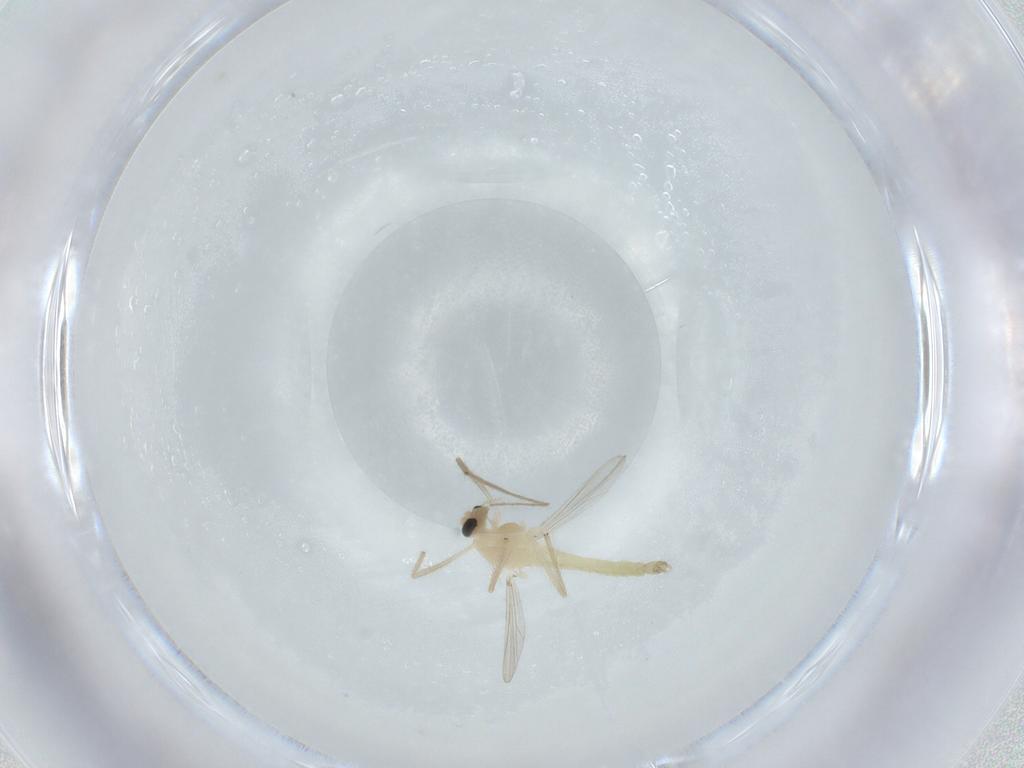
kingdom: Animalia
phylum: Arthropoda
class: Insecta
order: Diptera
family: Chironomidae
